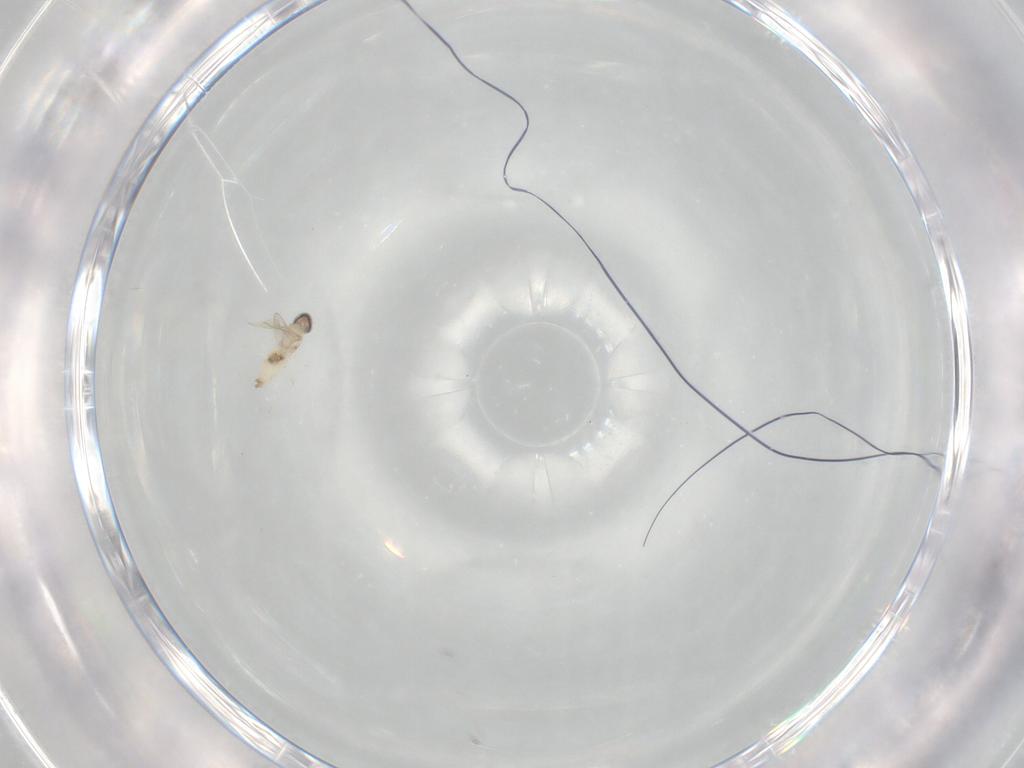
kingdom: Animalia
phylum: Arthropoda
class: Insecta
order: Diptera
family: Cecidomyiidae
